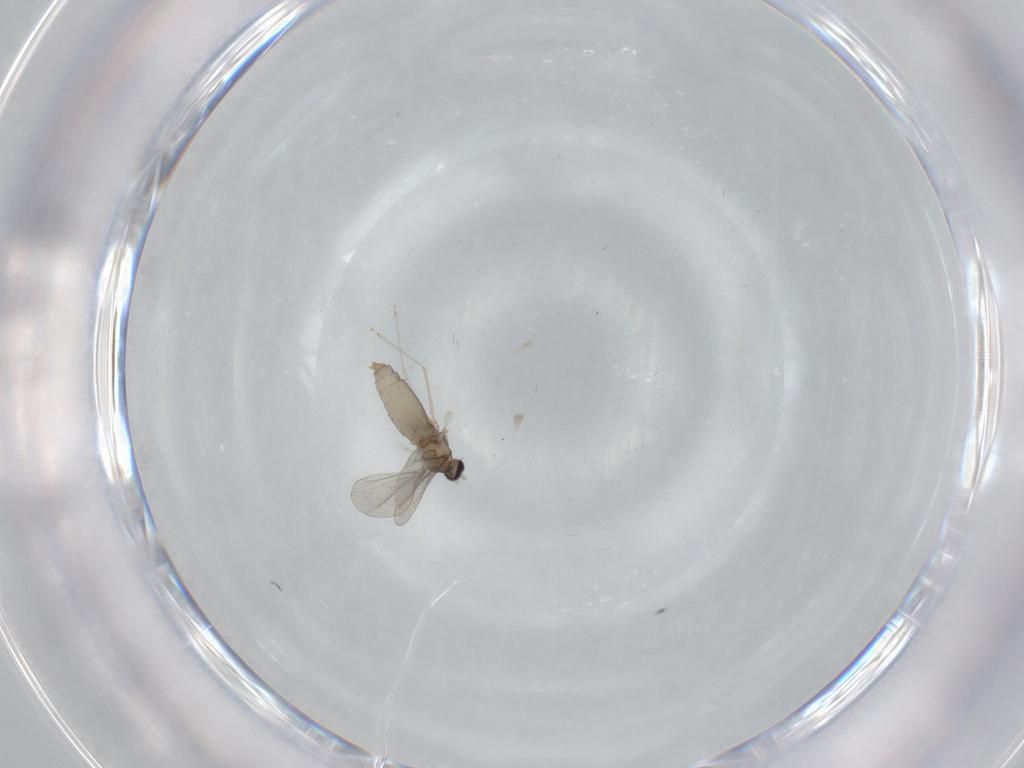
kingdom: Animalia
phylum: Arthropoda
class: Insecta
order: Diptera
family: Cecidomyiidae
